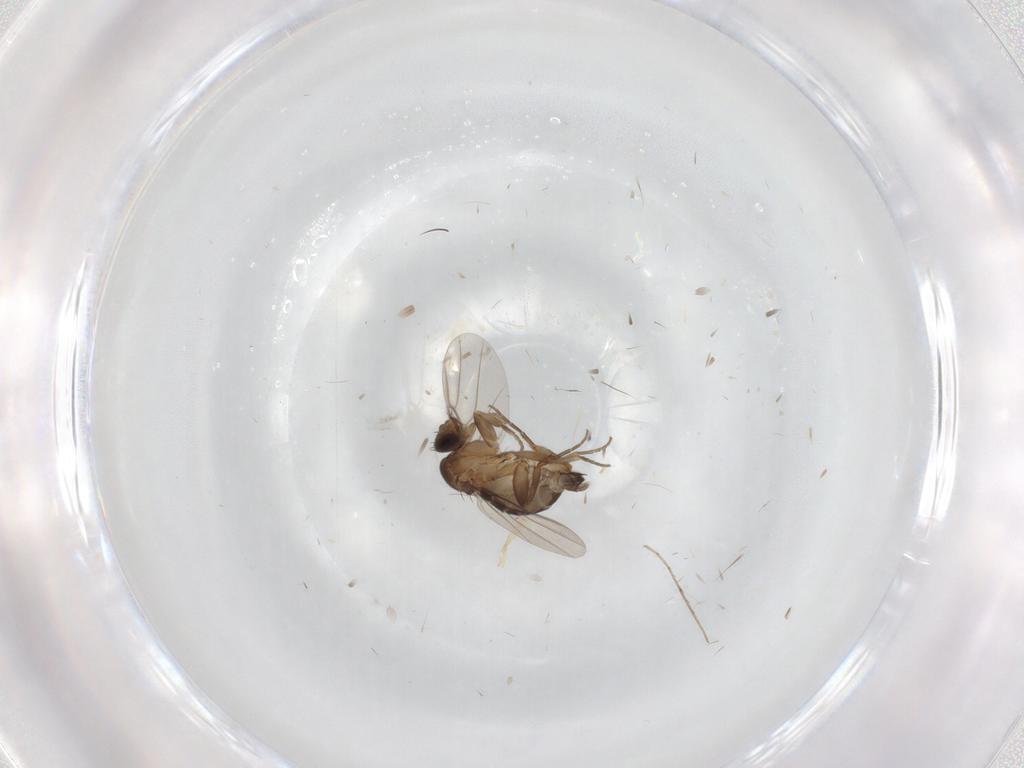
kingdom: Animalia
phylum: Arthropoda
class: Insecta
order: Diptera
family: Phoridae
